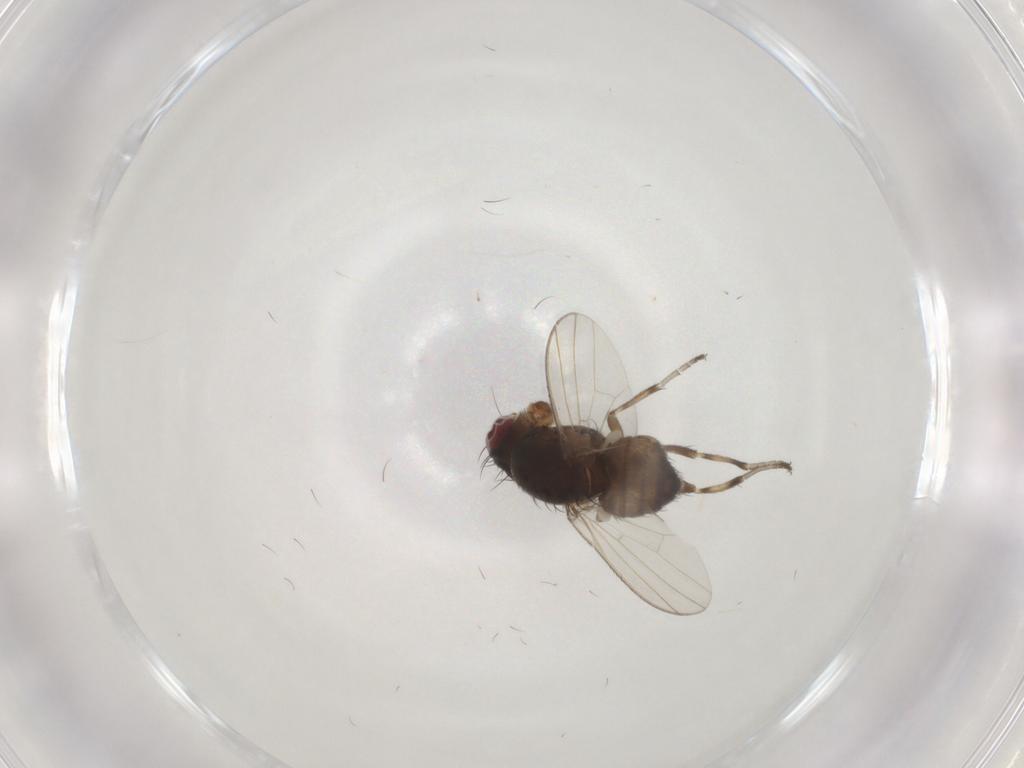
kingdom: Animalia
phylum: Arthropoda
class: Insecta
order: Diptera
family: Heleomyzidae
